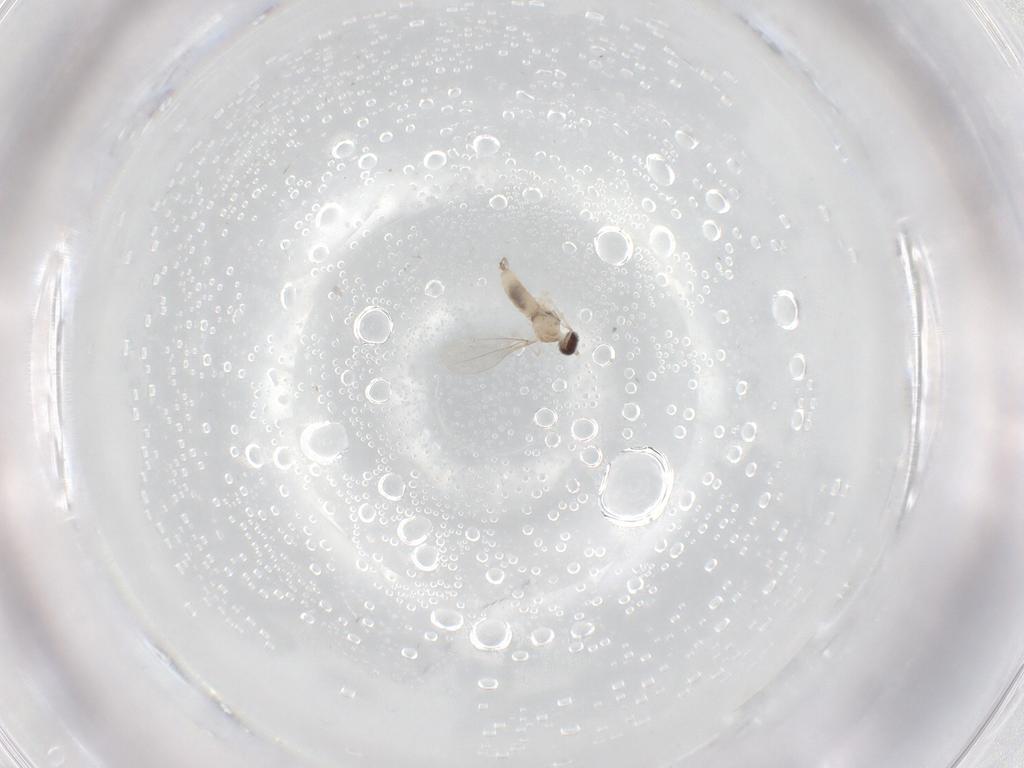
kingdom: Animalia
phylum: Arthropoda
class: Insecta
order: Diptera
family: Cecidomyiidae
